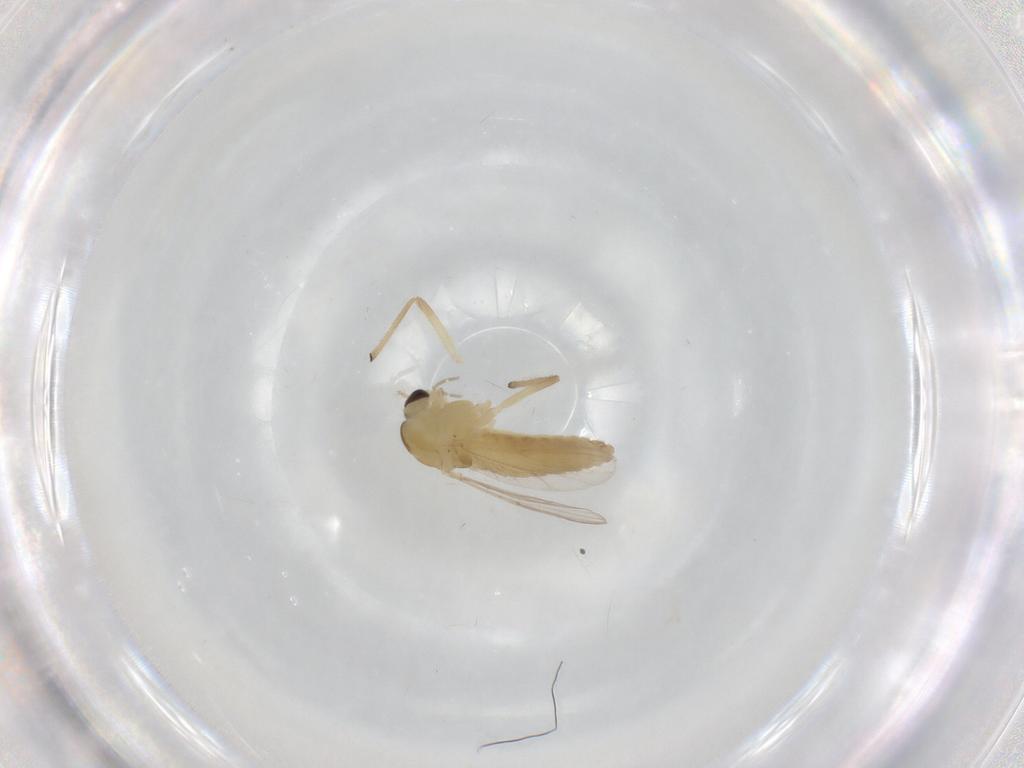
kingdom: Animalia
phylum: Arthropoda
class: Insecta
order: Diptera
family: Chironomidae
